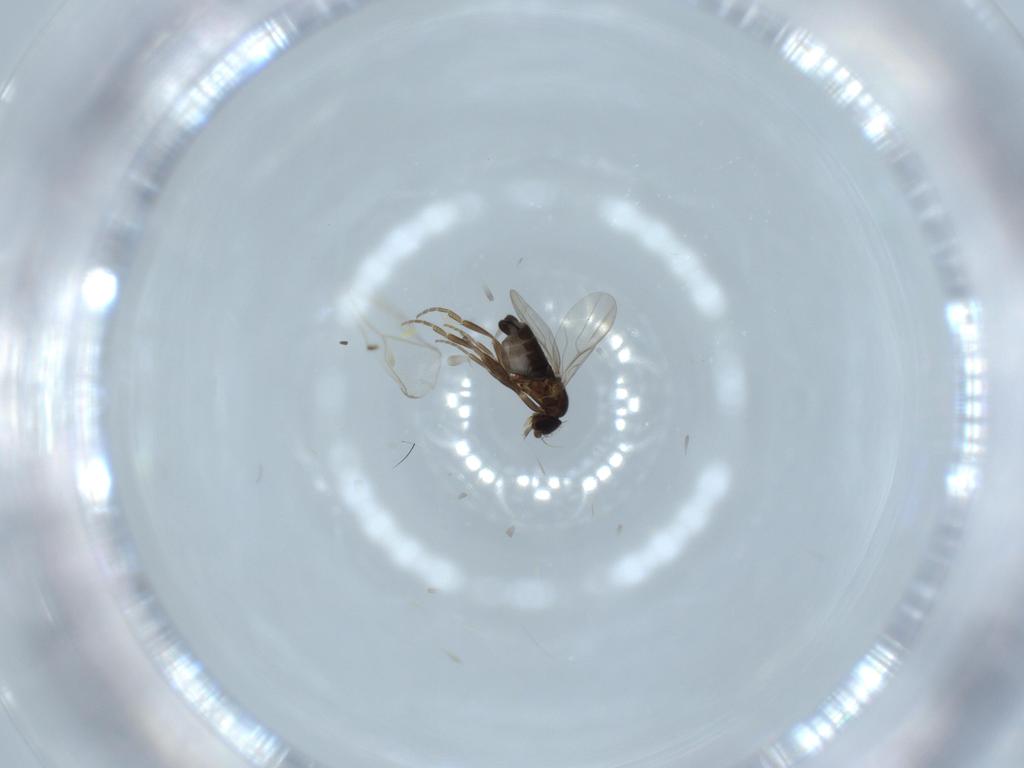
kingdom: Animalia
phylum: Arthropoda
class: Insecta
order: Diptera
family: Phoridae
